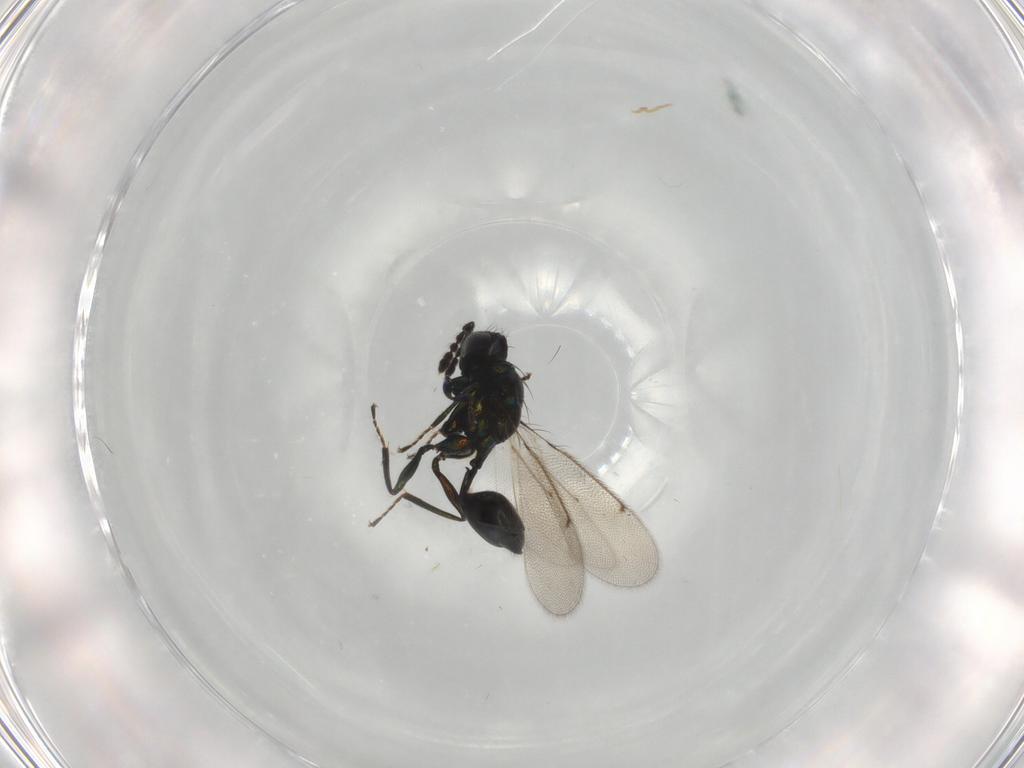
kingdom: Animalia
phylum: Arthropoda
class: Insecta
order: Hymenoptera
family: Eulophidae
